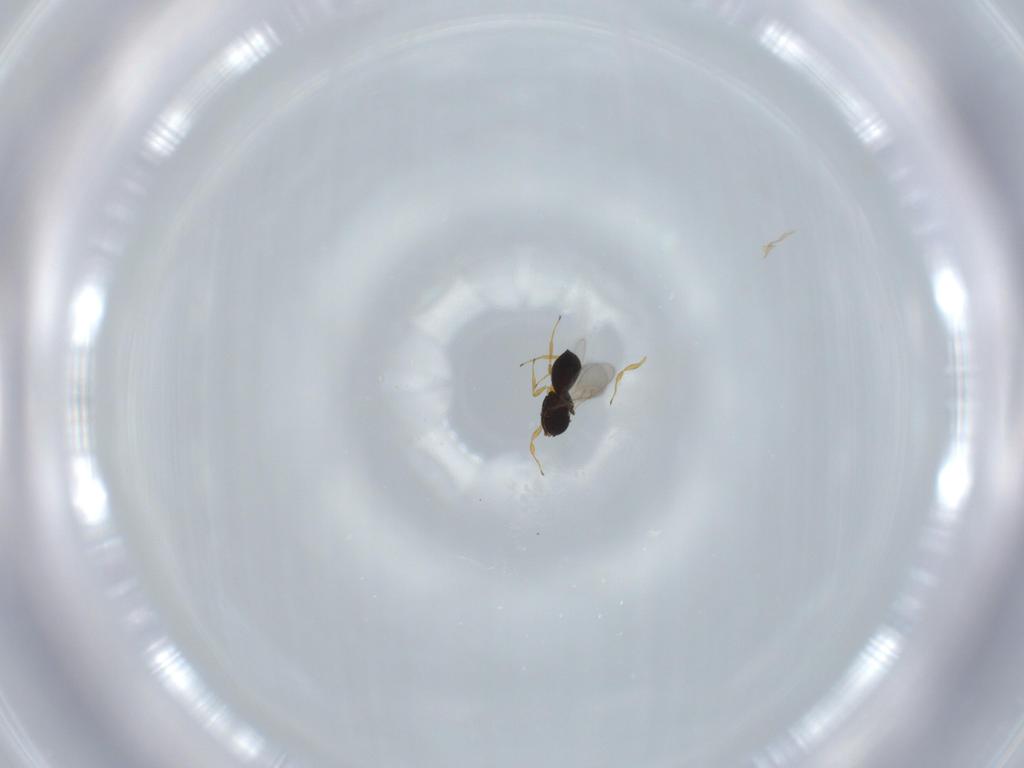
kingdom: Animalia
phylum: Arthropoda
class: Insecta
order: Hymenoptera
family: Scelionidae
